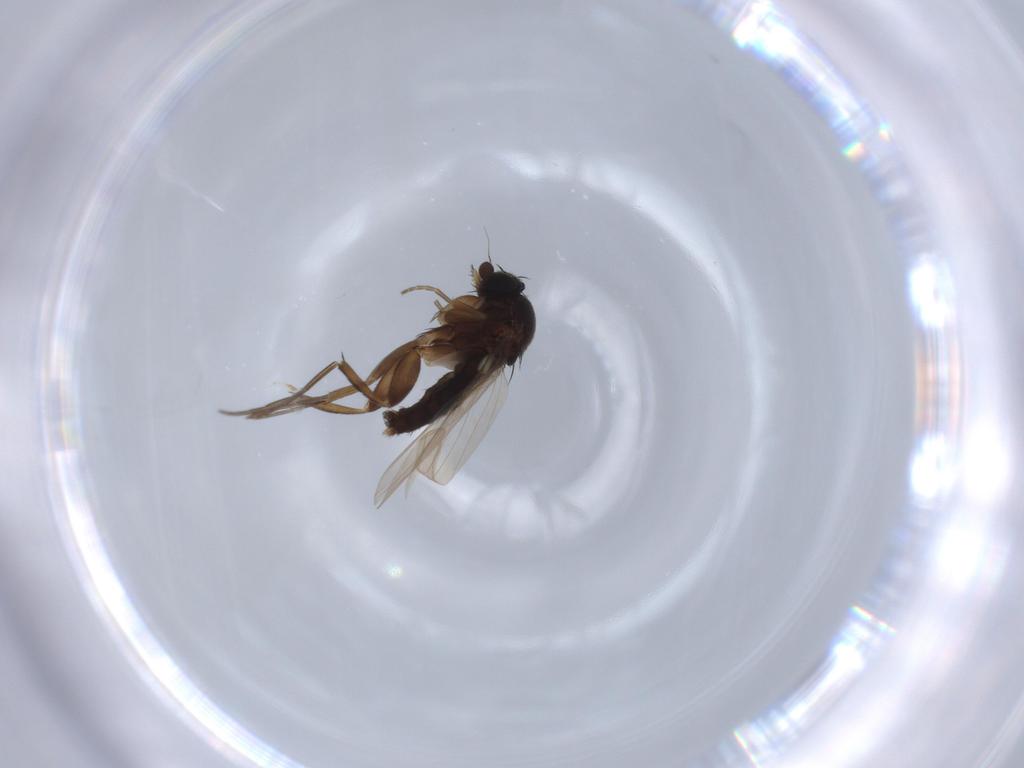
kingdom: Animalia
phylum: Arthropoda
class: Insecta
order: Diptera
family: Phoridae
